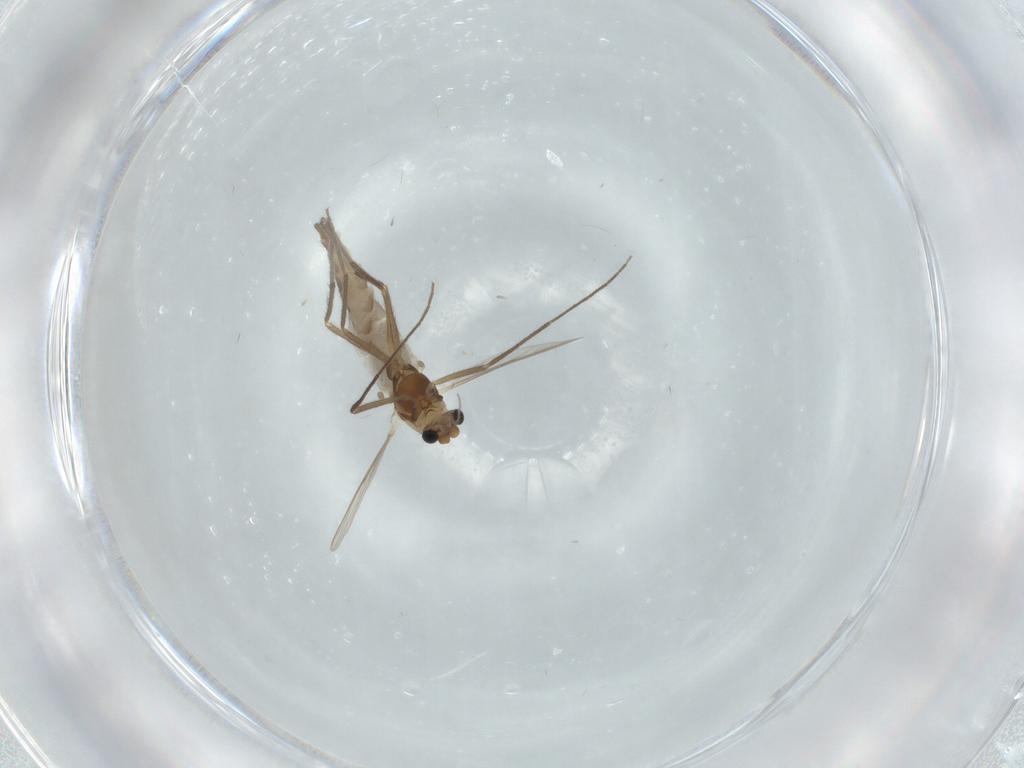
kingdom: Animalia
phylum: Arthropoda
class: Insecta
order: Diptera
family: Chironomidae
